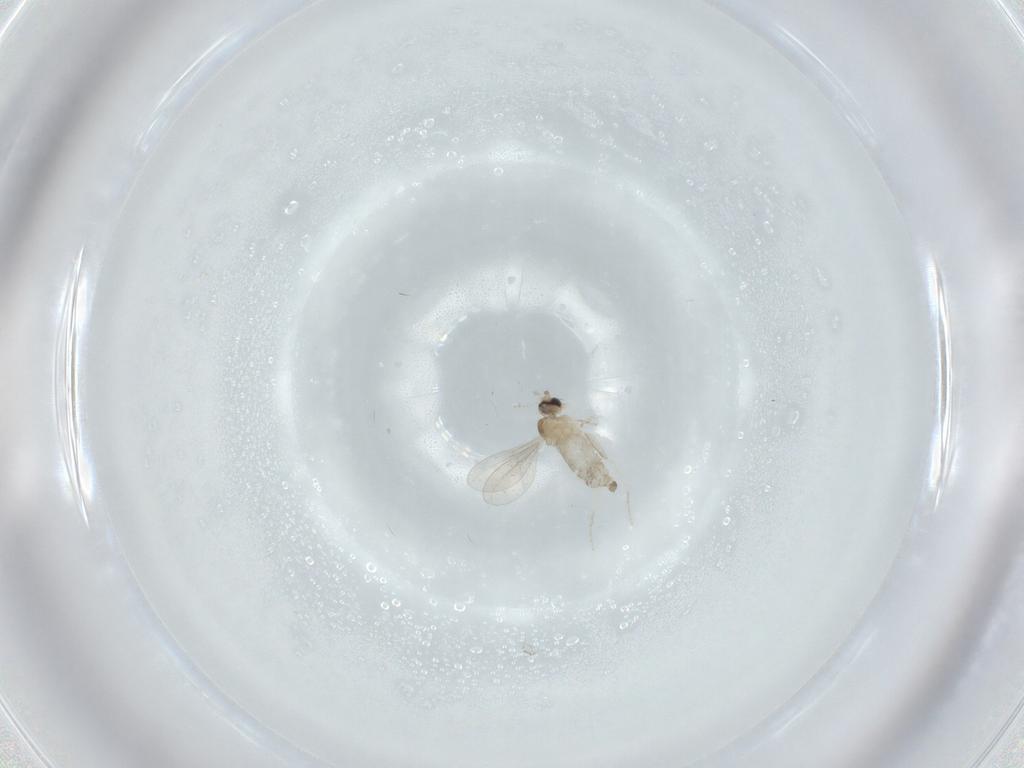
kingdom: Animalia
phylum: Arthropoda
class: Insecta
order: Diptera
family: Cecidomyiidae
